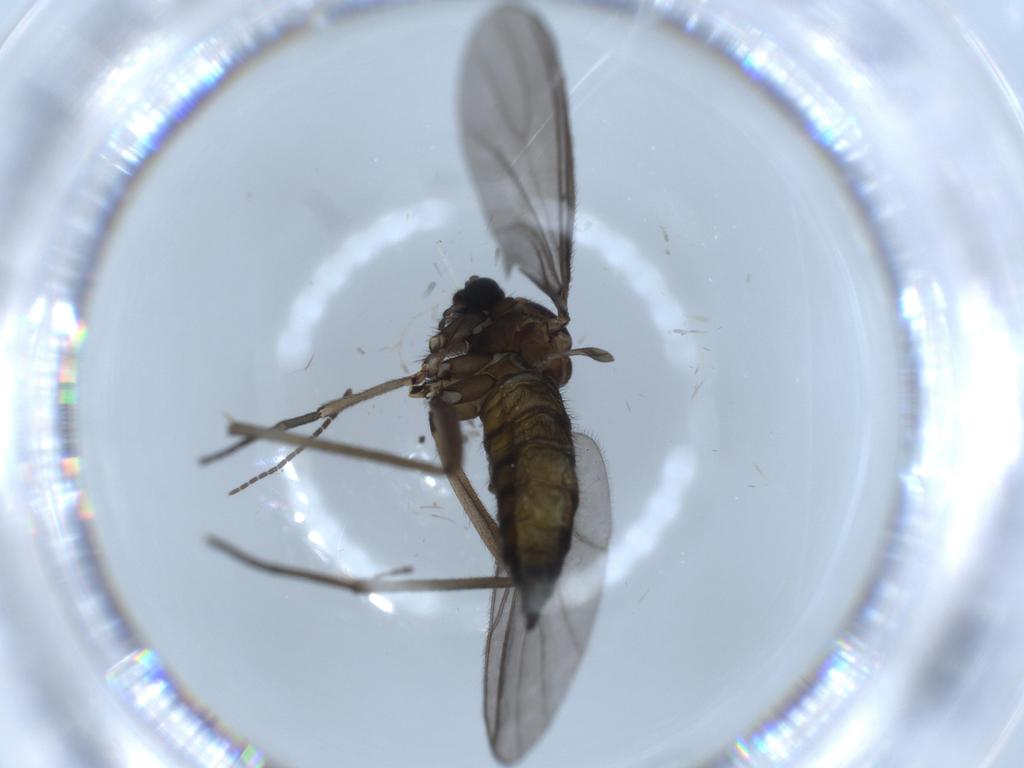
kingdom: Animalia
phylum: Arthropoda
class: Insecta
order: Diptera
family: Sciaridae
